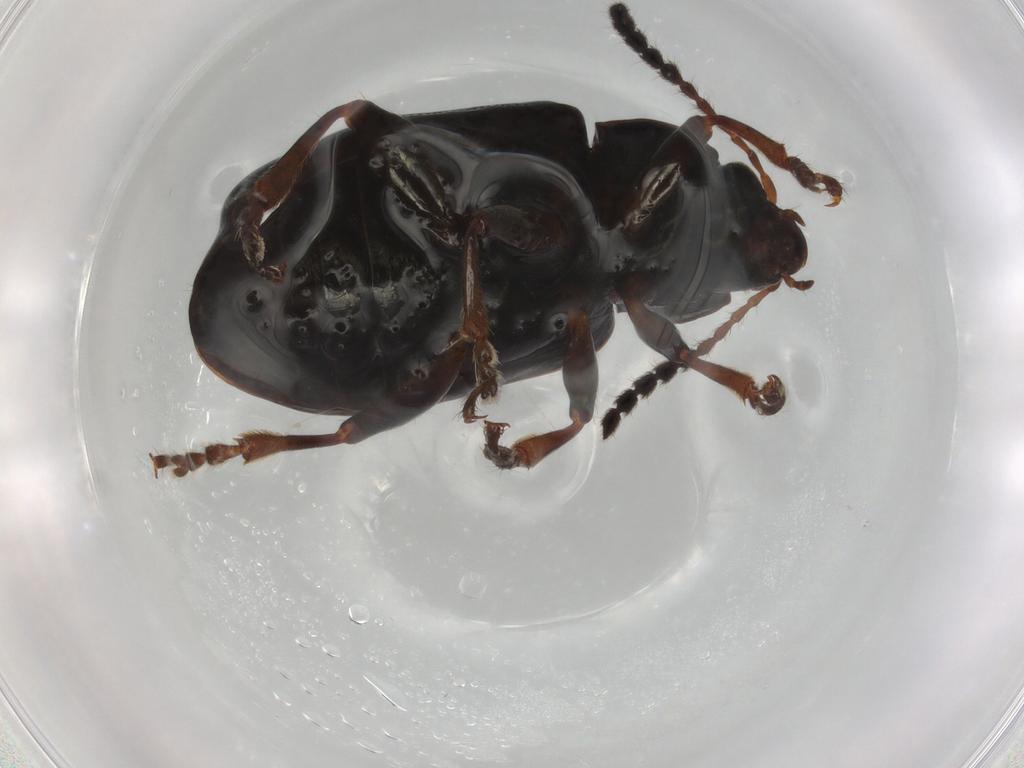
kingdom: Animalia
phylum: Arthropoda
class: Insecta
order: Coleoptera
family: Chrysomelidae
